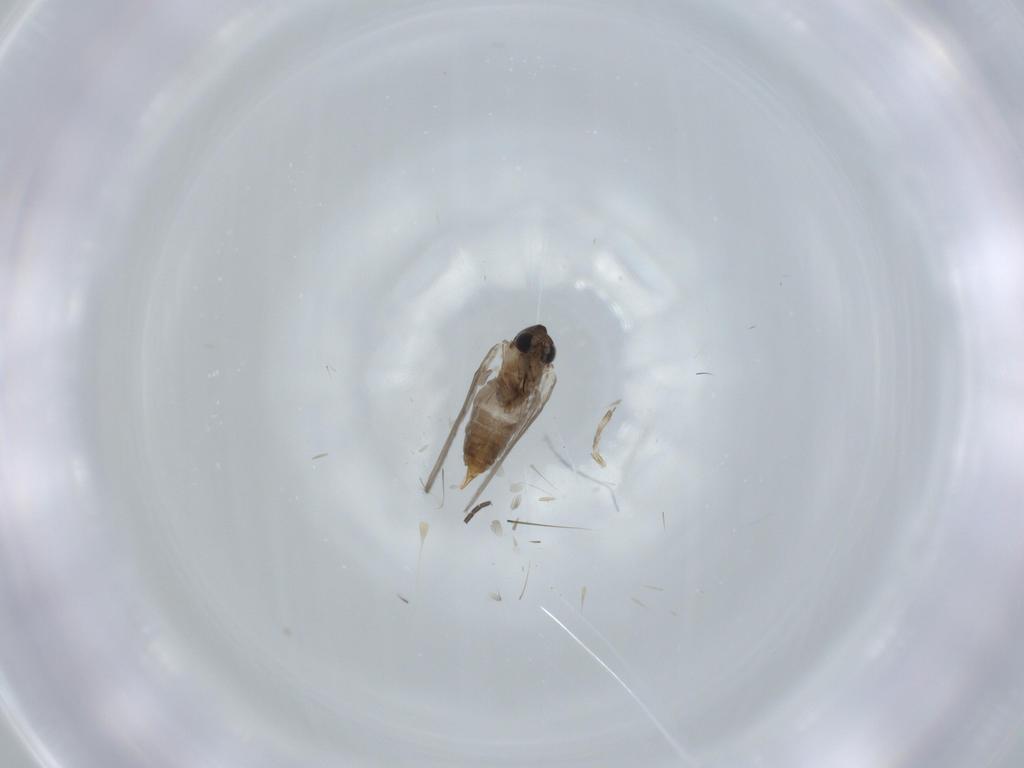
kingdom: Animalia
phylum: Arthropoda
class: Insecta
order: Diptera
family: Psychodidae
